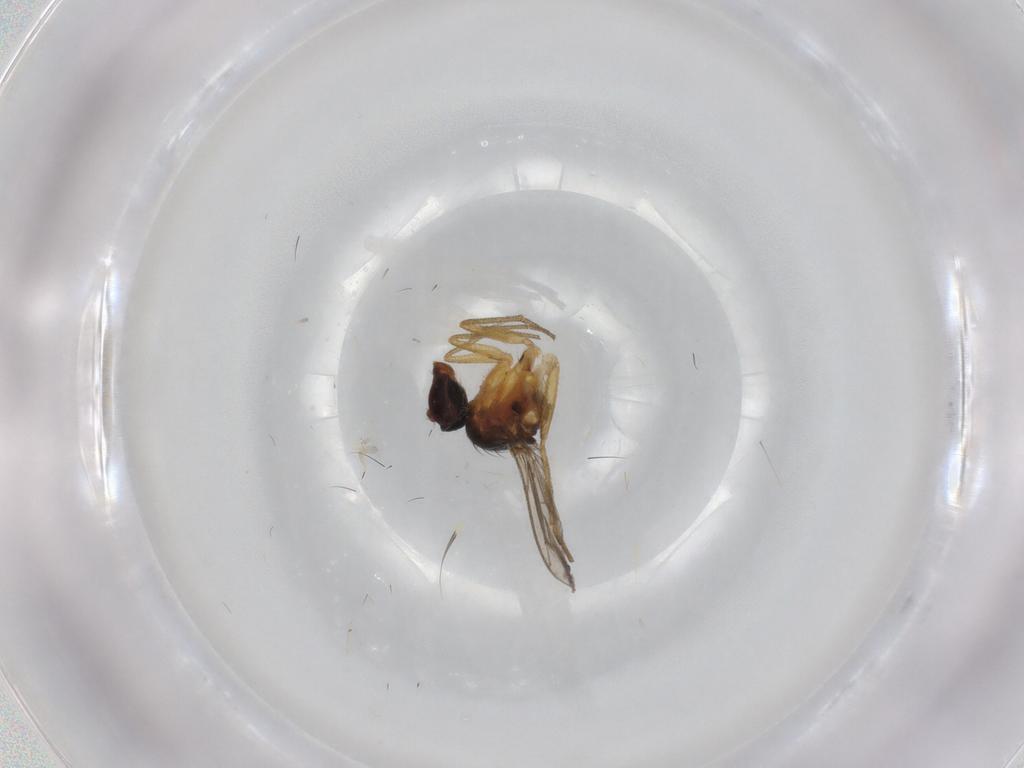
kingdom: Animalia
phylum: Arthropoda
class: Insecta
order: Diptera
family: Dolichopodidae
